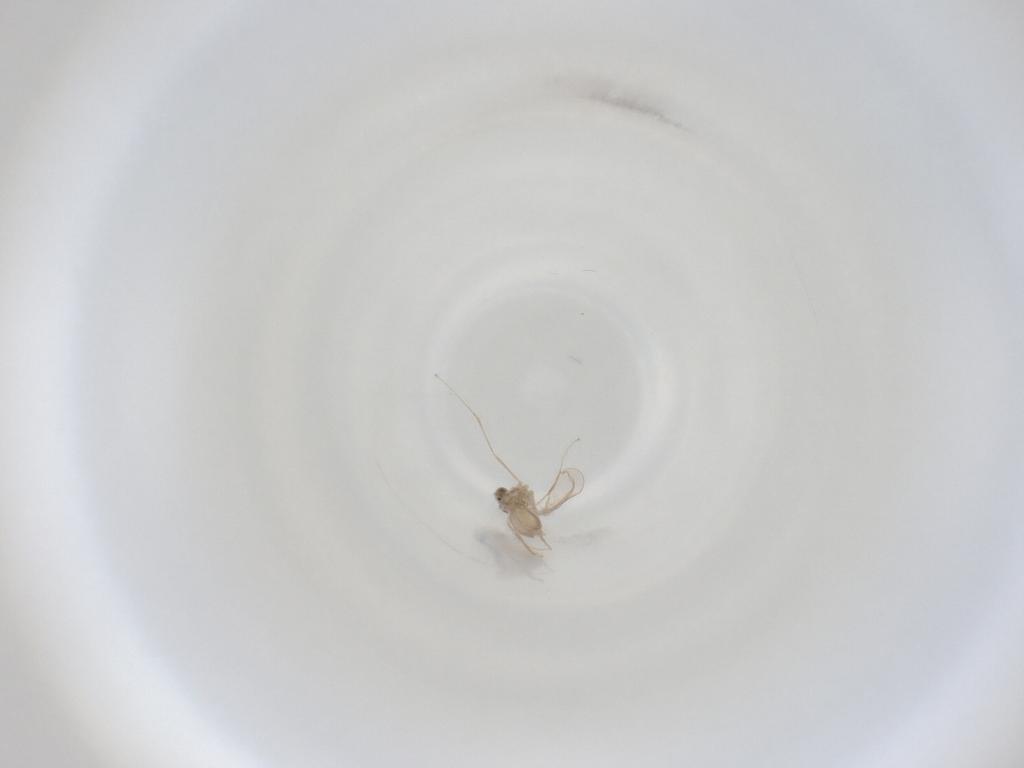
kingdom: Animalia
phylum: Arthropoda
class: Insecta
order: Diptera
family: Cecidomyiidae
